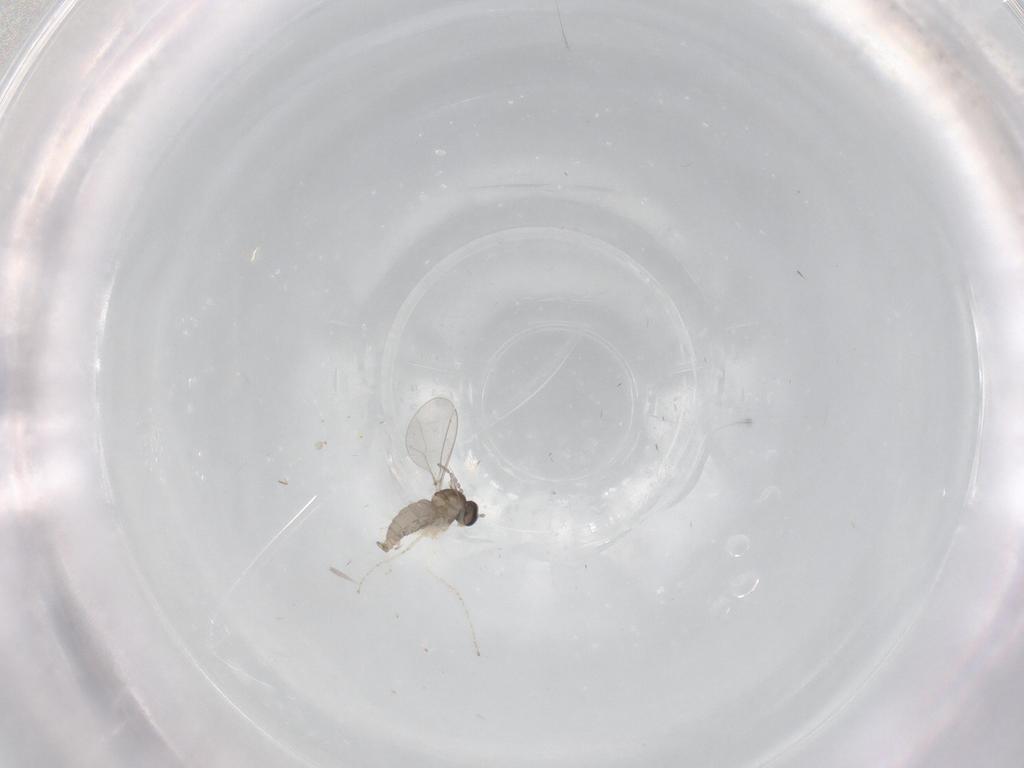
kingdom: Animalia
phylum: Arthropoda
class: Insecta
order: Diptera
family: Cecidomyiidae
